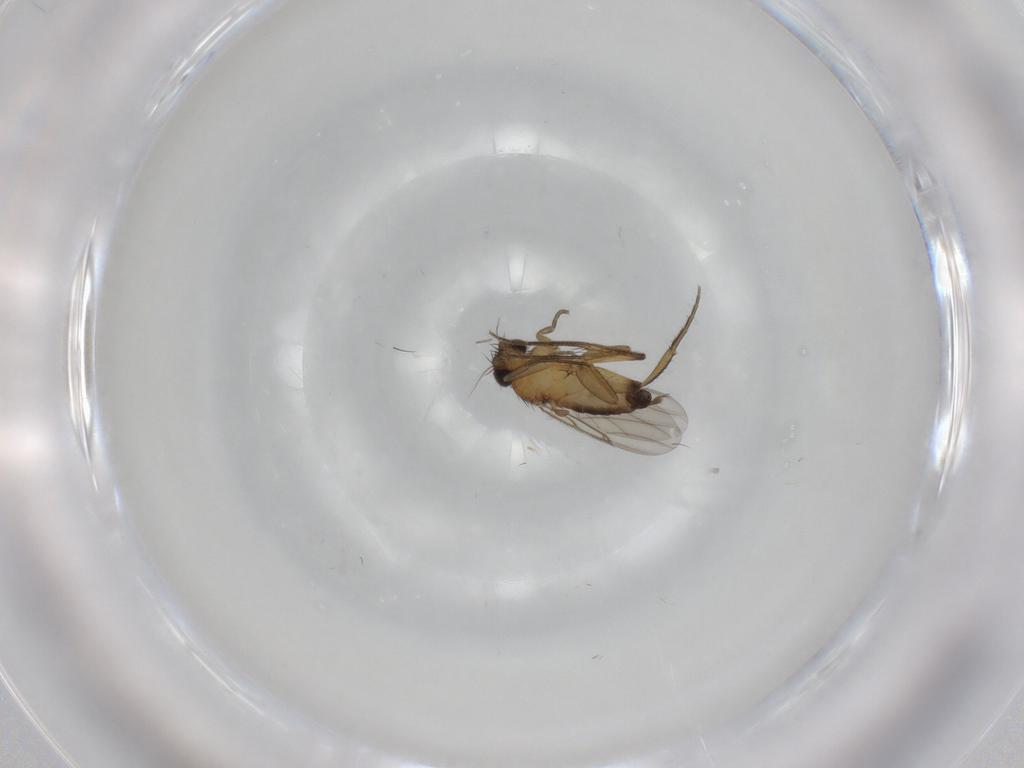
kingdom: Animalia
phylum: Arthropoda
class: Insecta
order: Diptera
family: Phoridae
